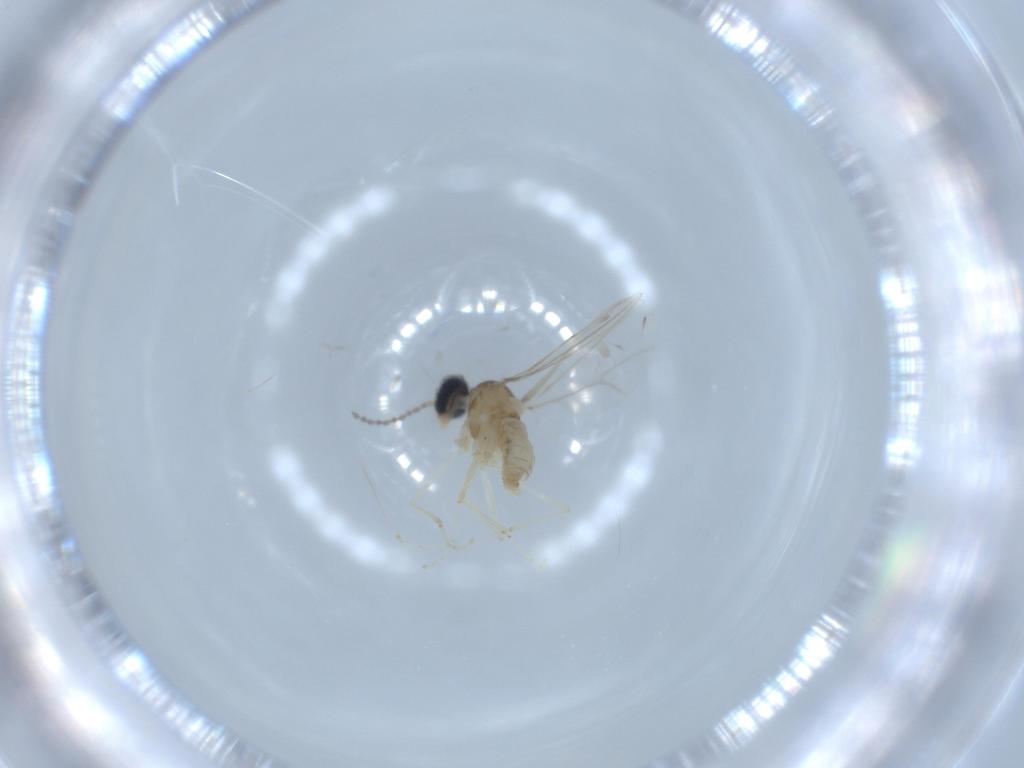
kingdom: Animalia
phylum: Arthropoda
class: Insecta
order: Diptera
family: Cecidomyiidae
